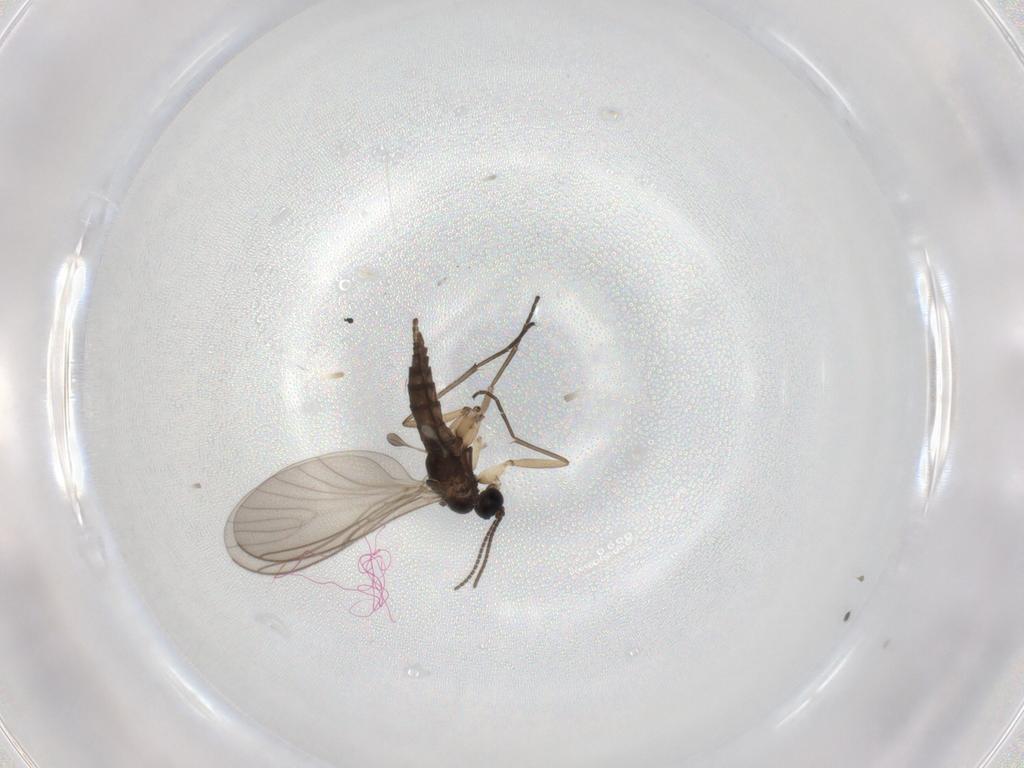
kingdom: Animalia
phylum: Arthropoda
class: Insecta
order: Diptera
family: Sciaridae
